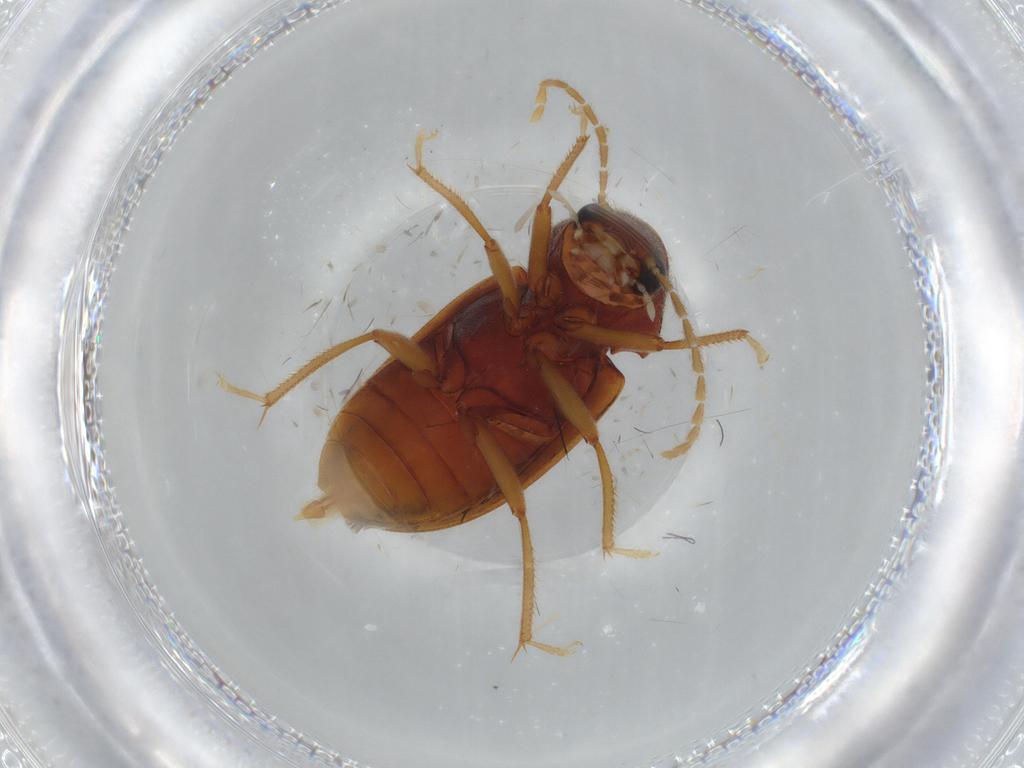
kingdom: Animalia
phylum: Arthropoda
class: Insecta
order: Coleoptera
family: Ptilodactylidae
